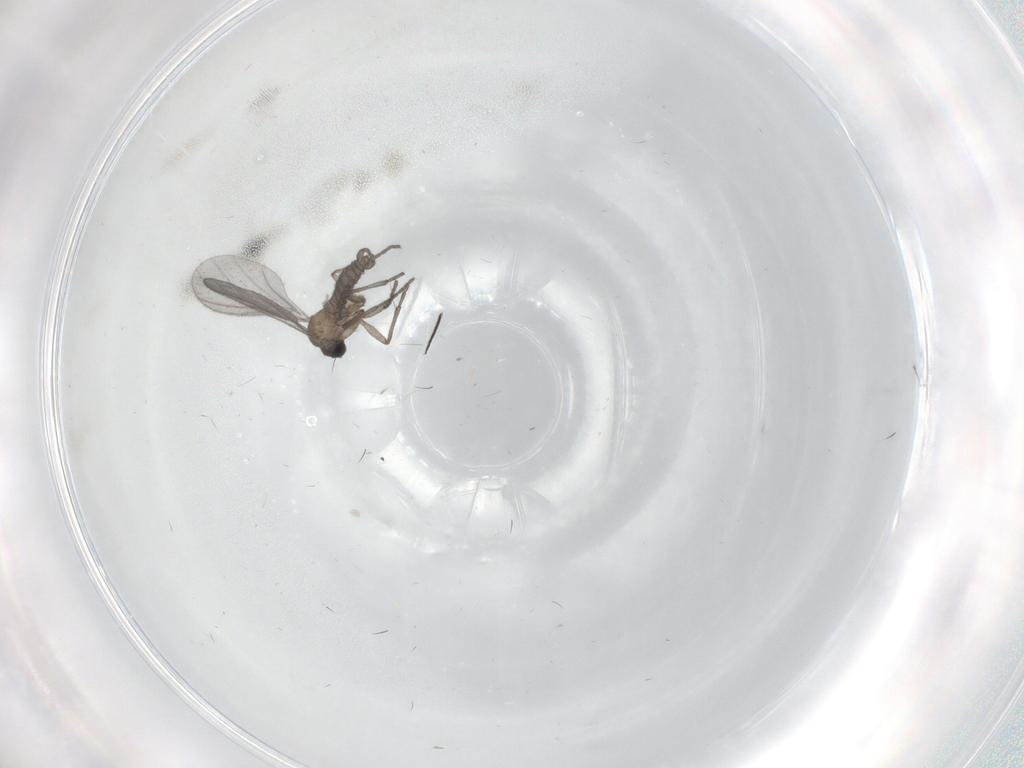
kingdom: Animalia
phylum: Arthropoda
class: Insecta
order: Diptera
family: Sciaridae
